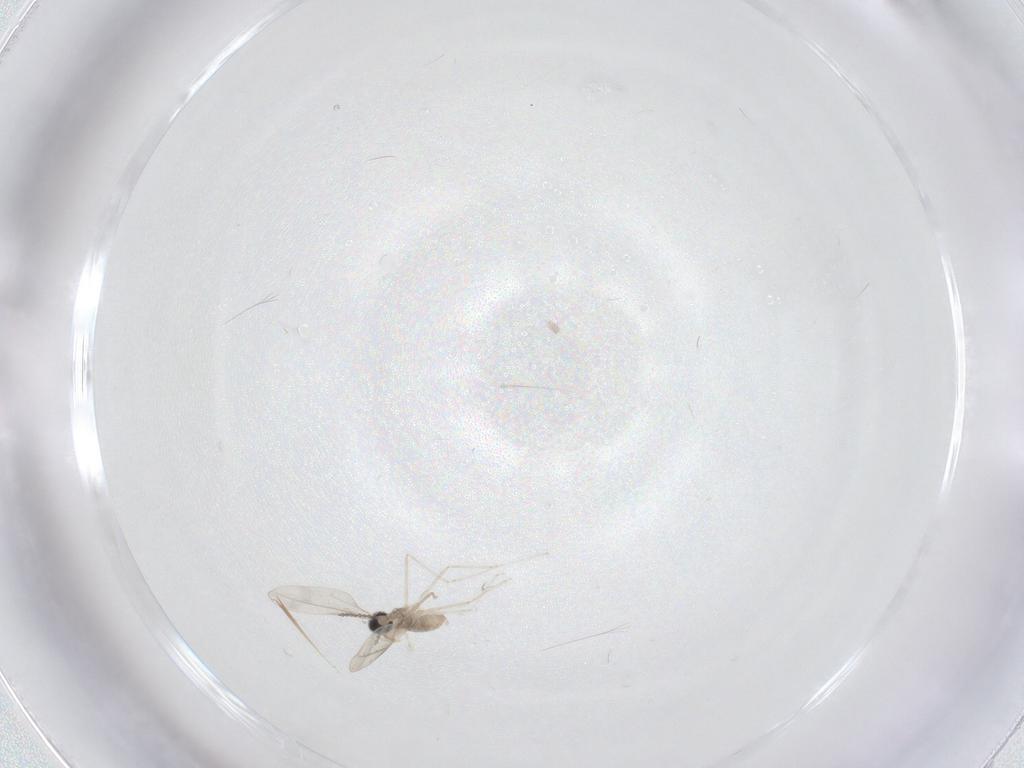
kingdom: Animalia
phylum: Arthropoda
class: Insecta
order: Diptera
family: Cecidomyiidae
